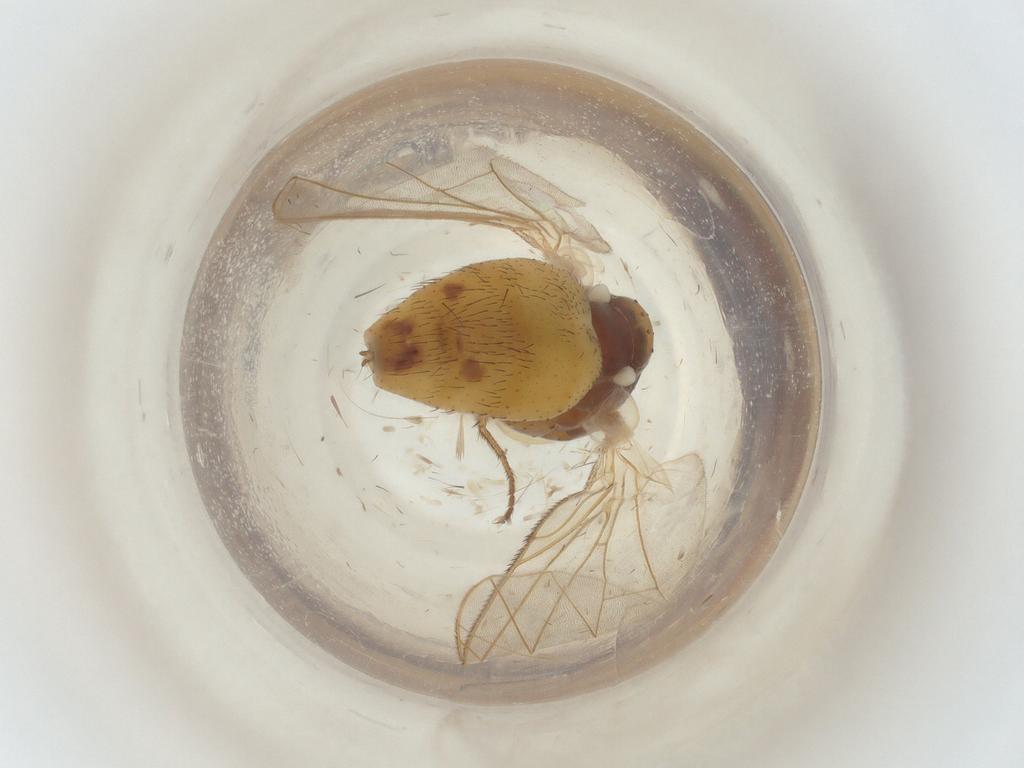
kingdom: Animalia
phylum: Arthropoda
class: Insecta
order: Diptera
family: Muscidae
